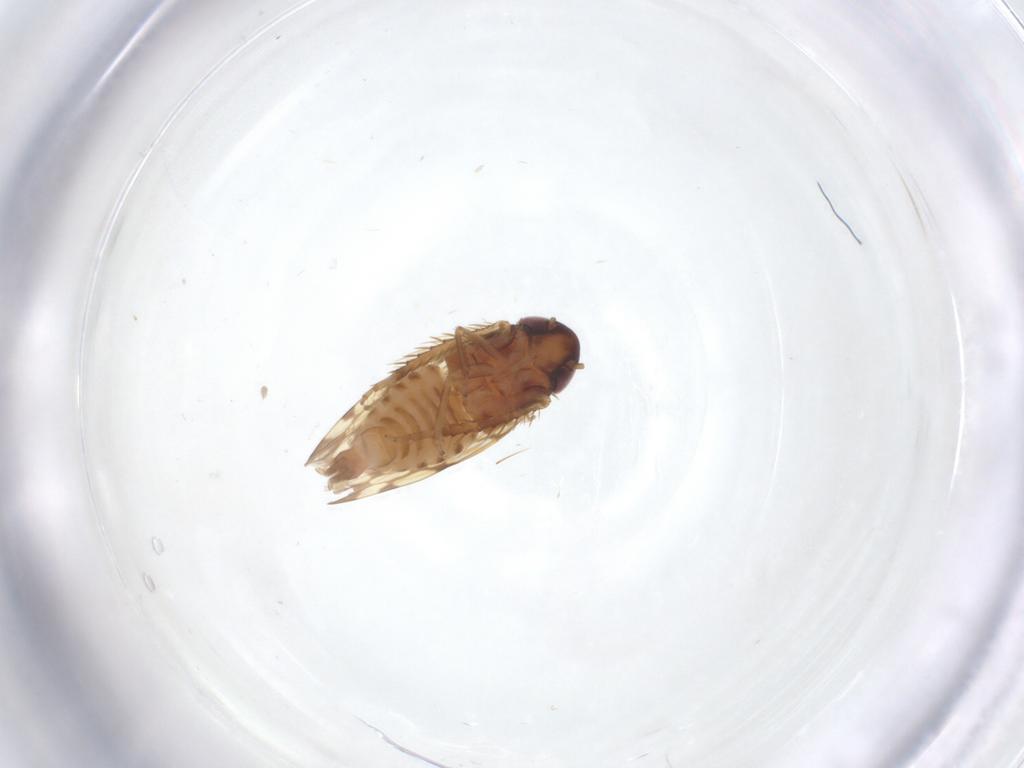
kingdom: Animalia
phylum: Arthropoda
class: Insecta
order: Hemiptera
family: Cicadellidae
